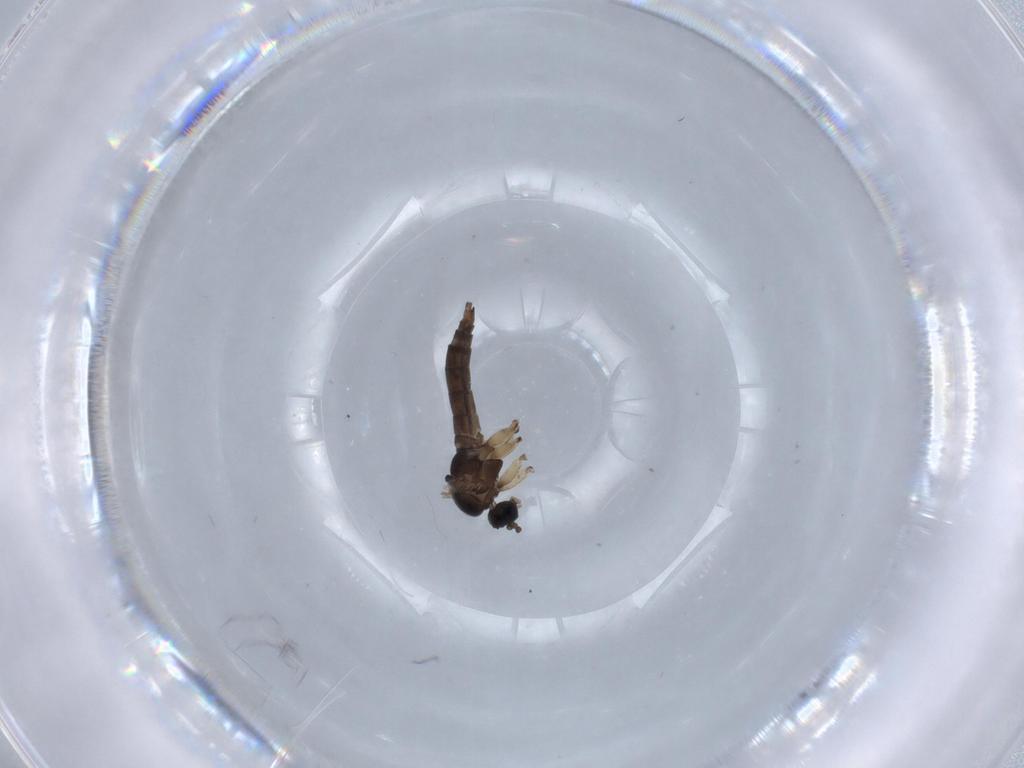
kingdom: Animalia
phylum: Arthropoda
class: Insecta
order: Diptera
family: Sciaridae
